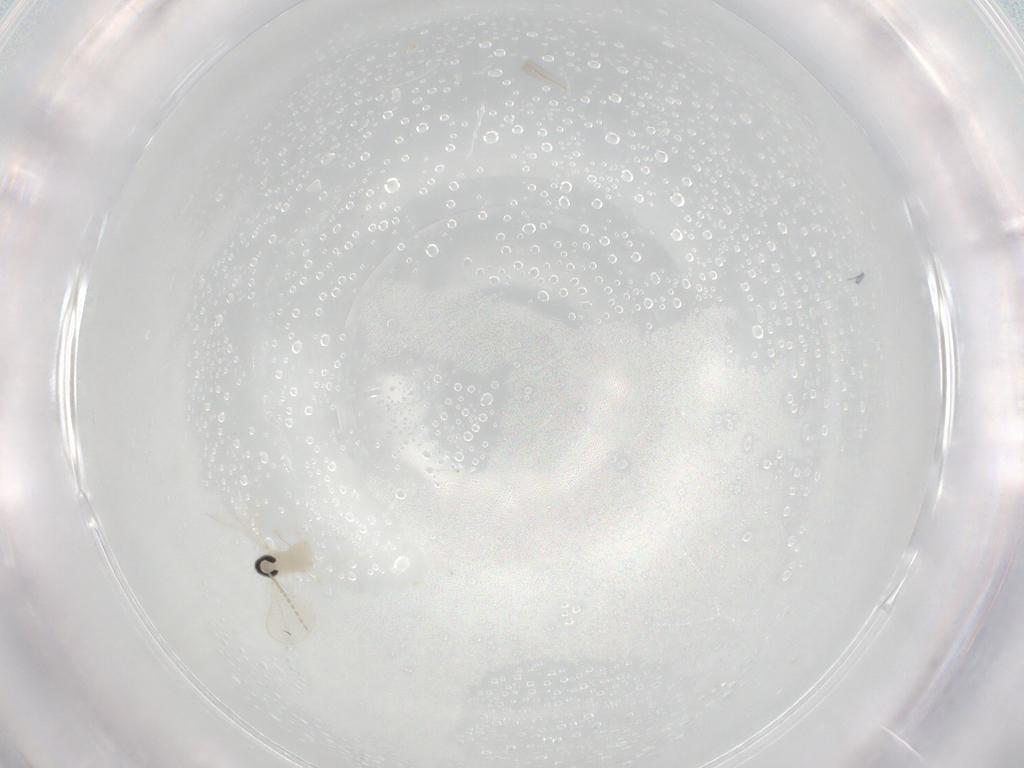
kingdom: Animalia
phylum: Arthropoda
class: Insecta
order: Diptera
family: Cecidomyiidae
